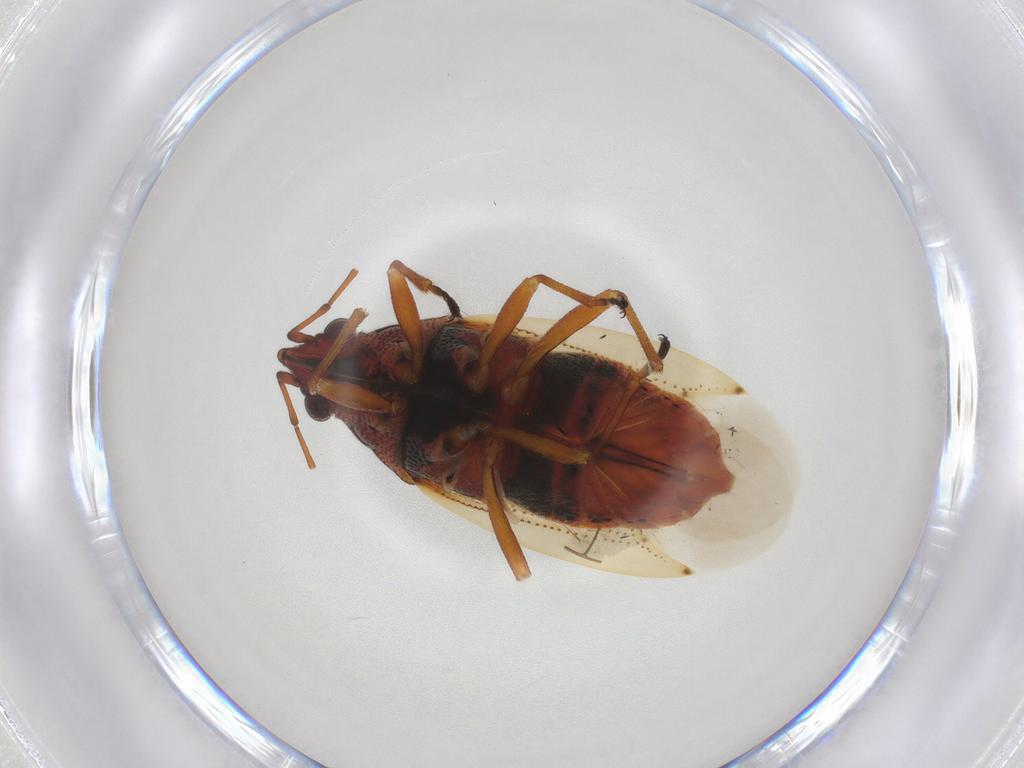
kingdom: Animalia
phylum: Arthropoda
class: Insecta
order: Hemiptera
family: Lygaeidae
